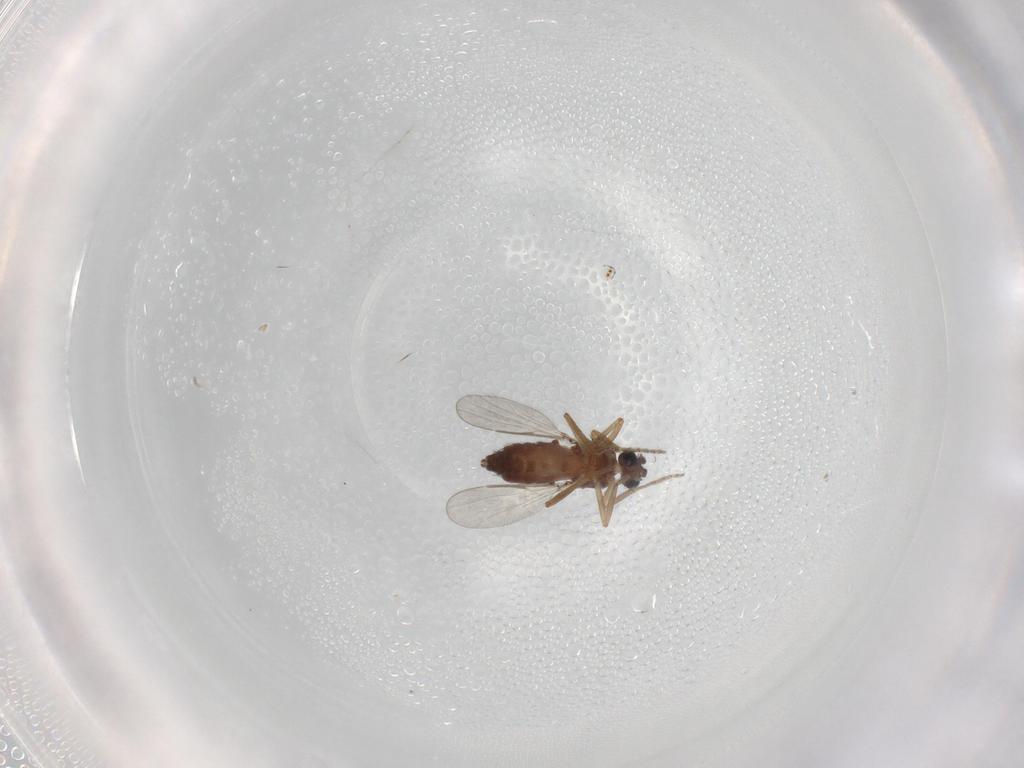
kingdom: Animalia
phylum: Arthropoda
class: Insecta
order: Diptera
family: Ceratopogonidae
